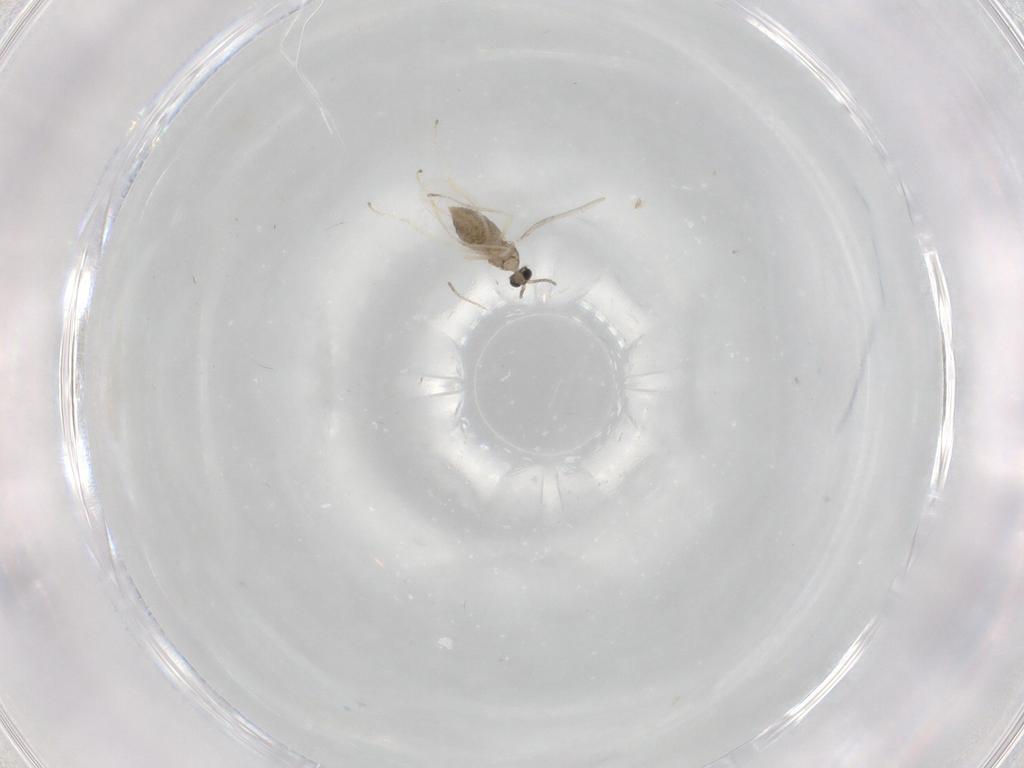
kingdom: Animalia
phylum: Arthropoda
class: Insecta
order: Diptera
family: Cecidomyiidae
